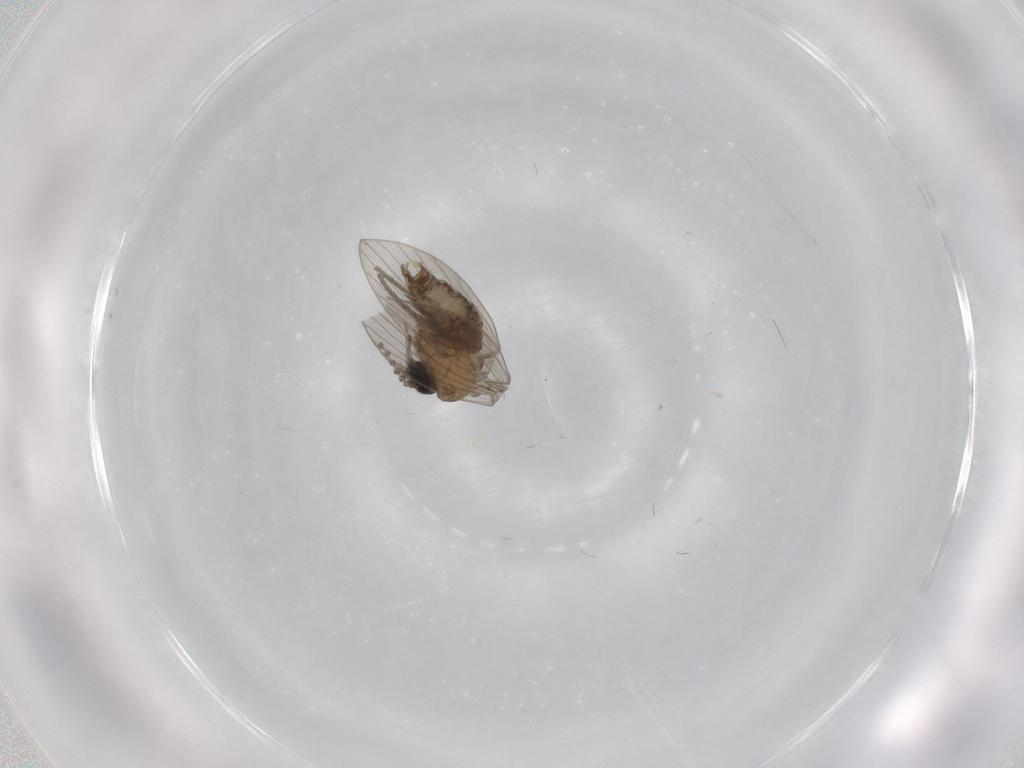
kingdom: Animalia
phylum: Arthropoda
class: Insecta
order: Diptera
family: Psychodidae
